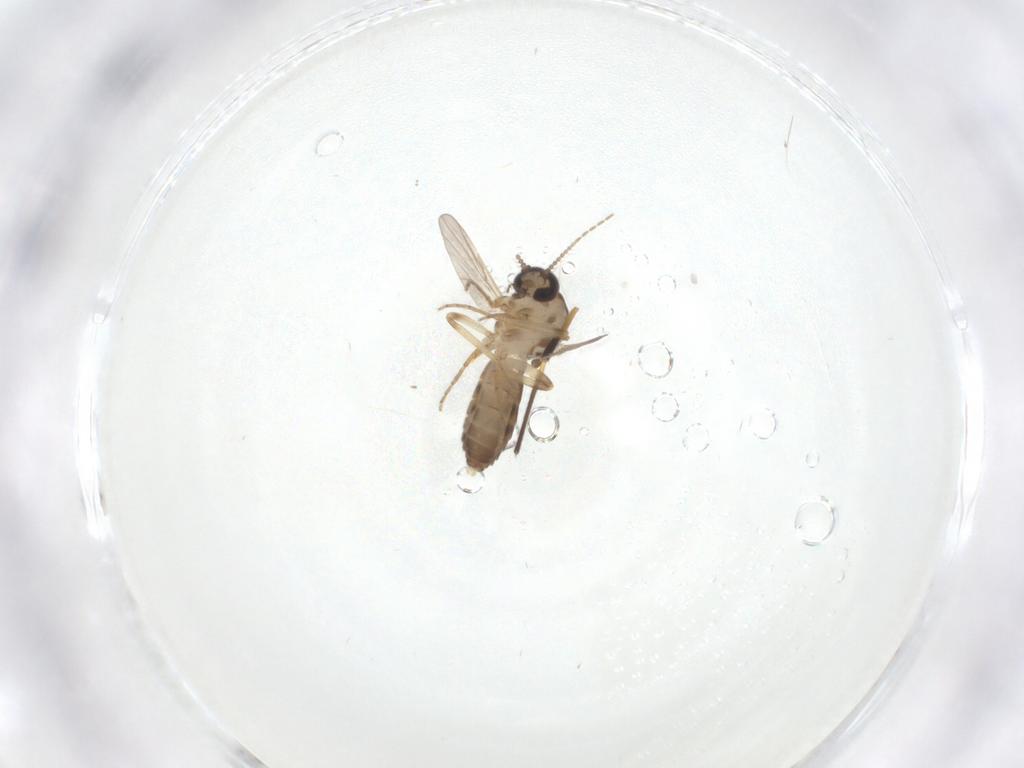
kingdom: Animalia
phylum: Arthropoda
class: Insecta
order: Diptera
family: Ceratopogonidae
